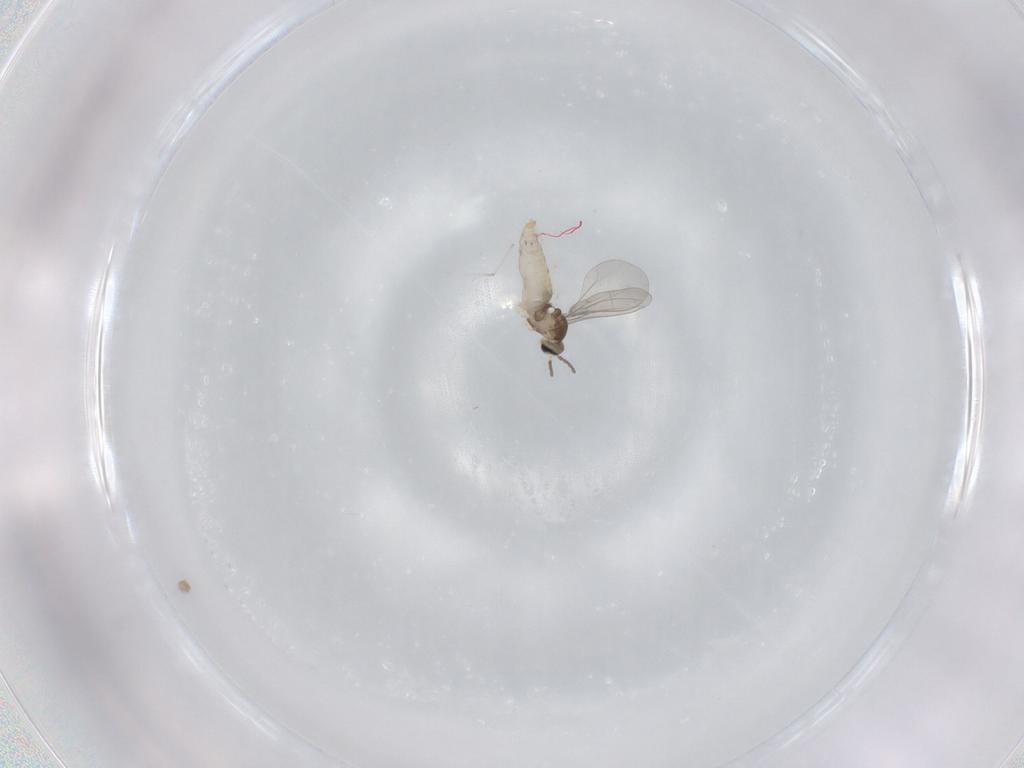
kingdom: Animalia
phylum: Arthropoda
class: Insecta
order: Diptera
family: Cecidomyiidae
